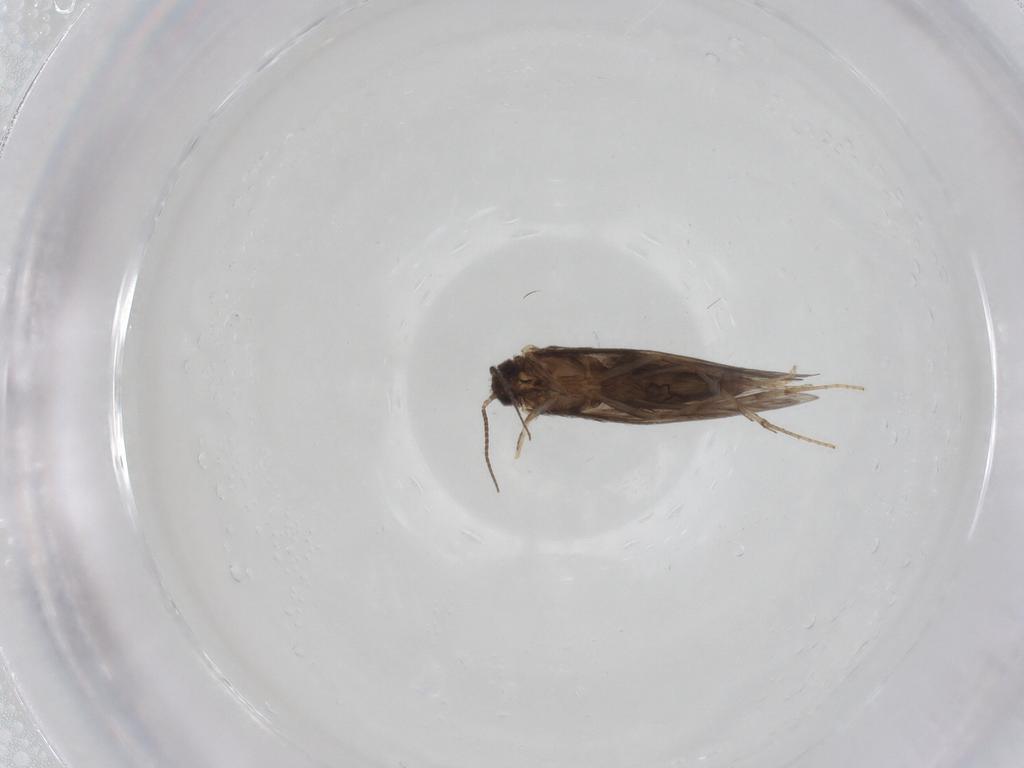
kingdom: Animalia
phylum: Arthropoda
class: Insecta
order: Trichoptera
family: Hydroptilidae
